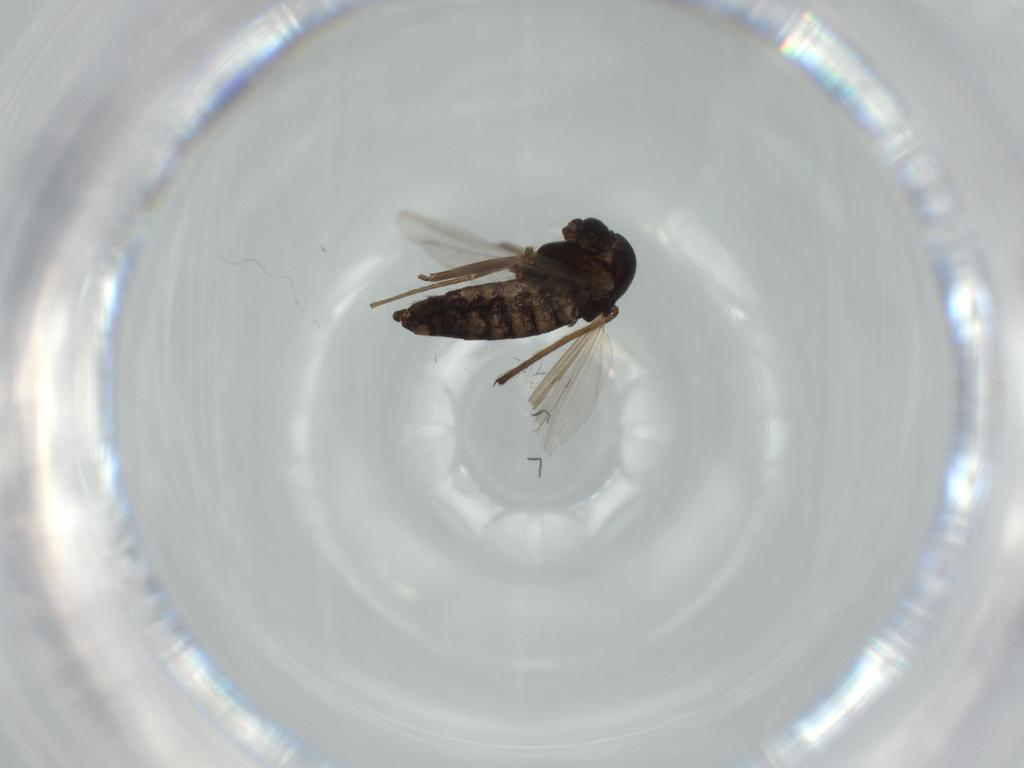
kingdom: Animalia
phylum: Arthropoda
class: Insecta
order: Diptera
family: Chironomidae
